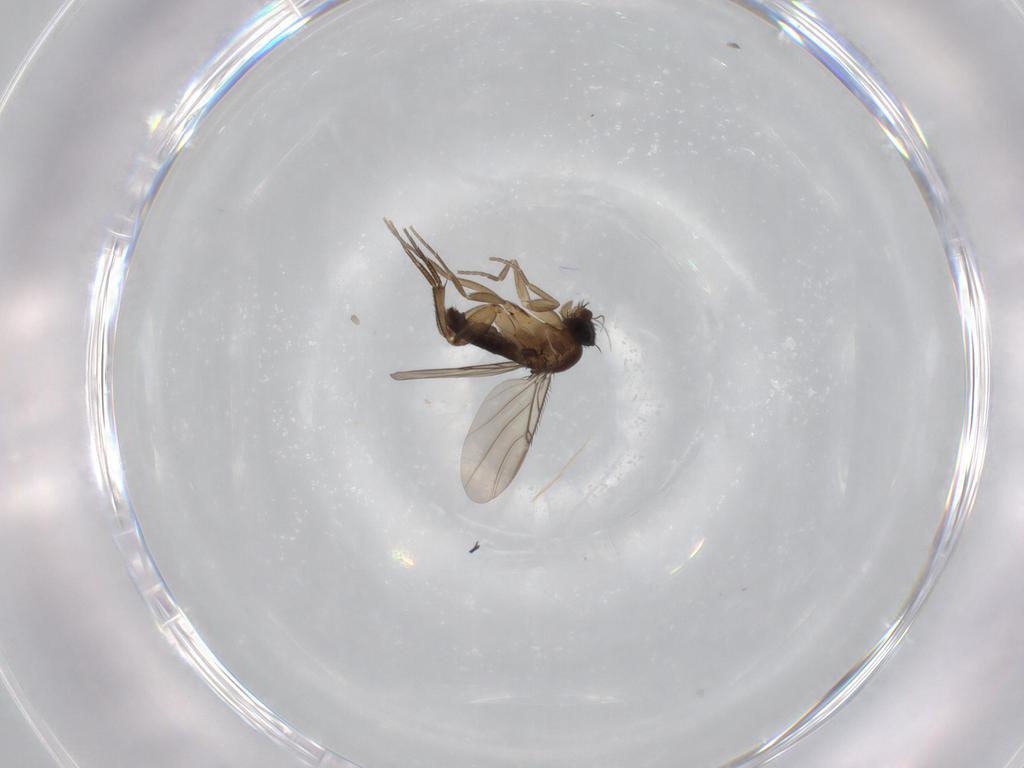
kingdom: Animalia
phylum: Arthropoda
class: Insecta
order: Diptera
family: Phoridae
